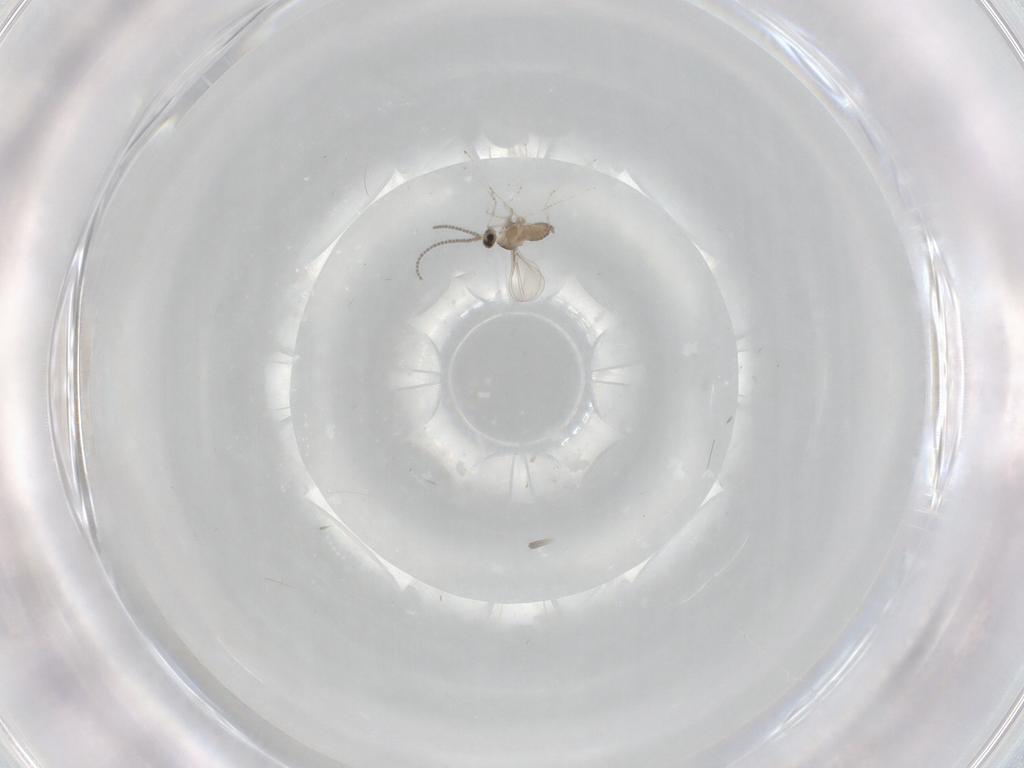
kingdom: Animalia
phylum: Arthropoda
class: Insecta
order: Diptera
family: Cecidomyiidae
